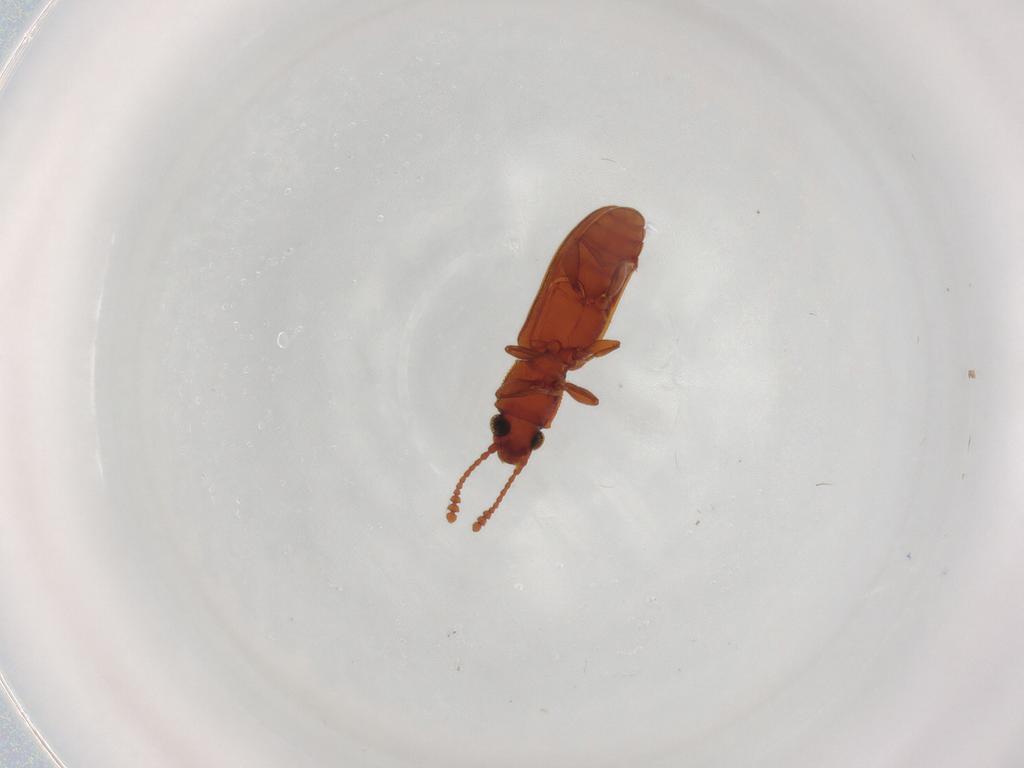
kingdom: Animalia
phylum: Arthropoda
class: Insecta
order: Coleoptera
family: Silvanidae
